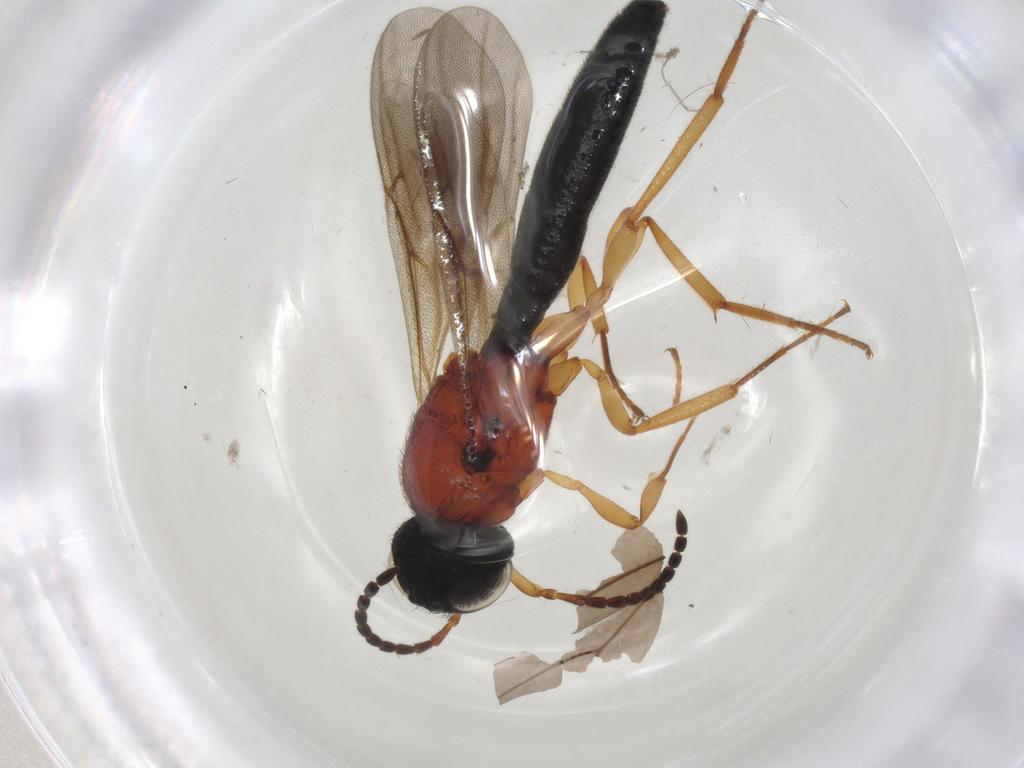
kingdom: Animalia
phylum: Arthropoda
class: Insecta
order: Hymenoptera
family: Scelionidae
